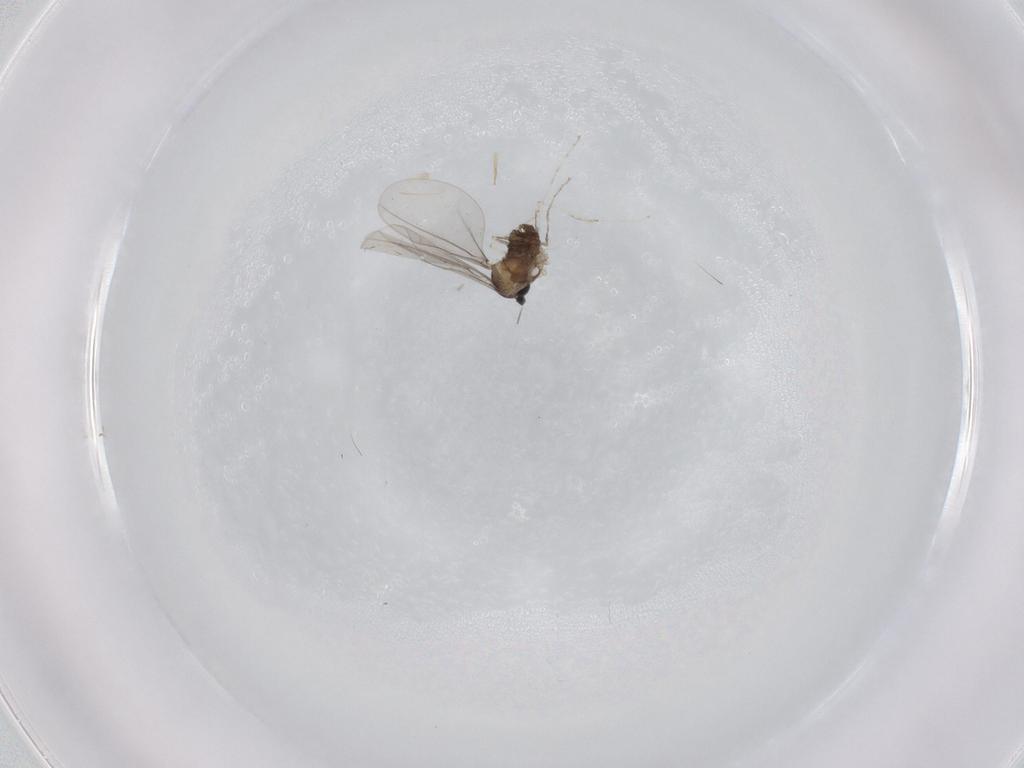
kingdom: Animalia
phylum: Arthropoda
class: Insecta
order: Diptera
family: Cecidomyiidae
